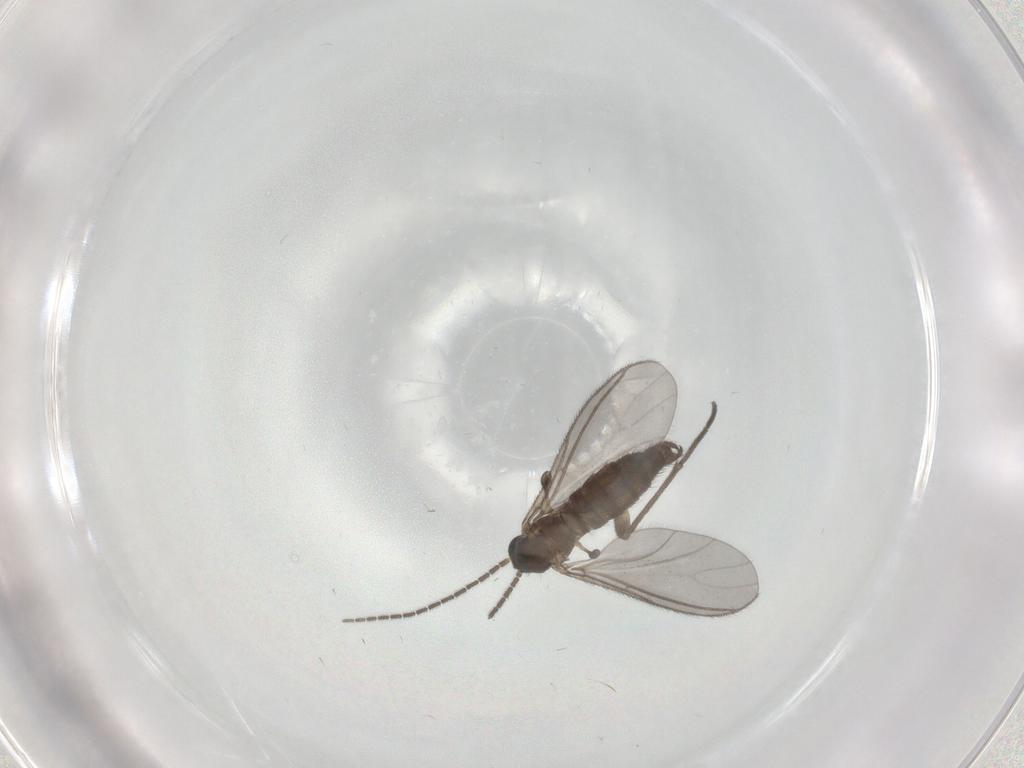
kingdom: Animalia
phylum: Arthropoda
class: Insecta
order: Diptera
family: Sciaridae
